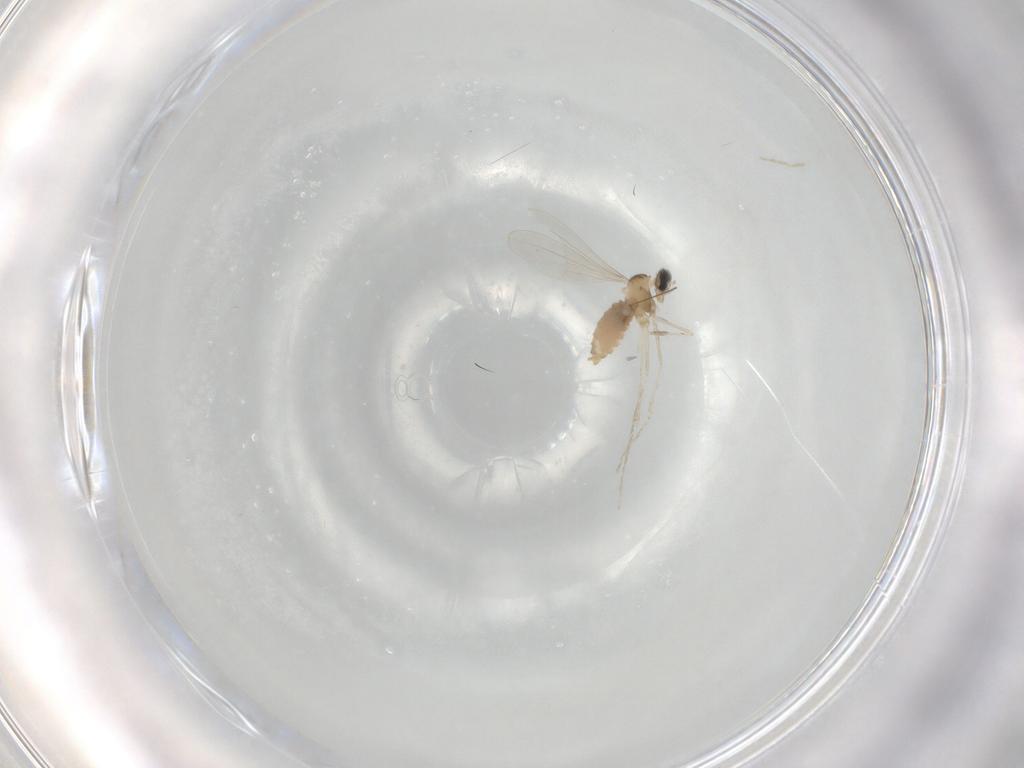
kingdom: Animalia
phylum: Arthropoda
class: Insecta
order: Diptera
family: Cecidomyiidae
